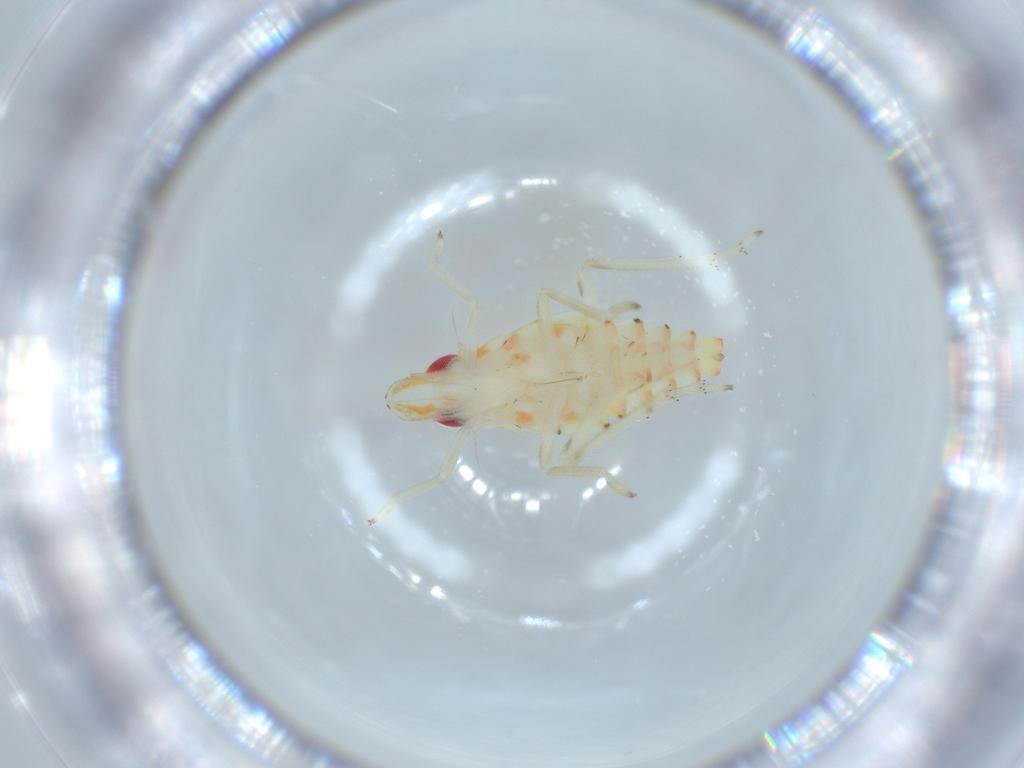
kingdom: Animalia
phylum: Arthropoda
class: Insecta
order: Hemiptera
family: Tropiduchidae
